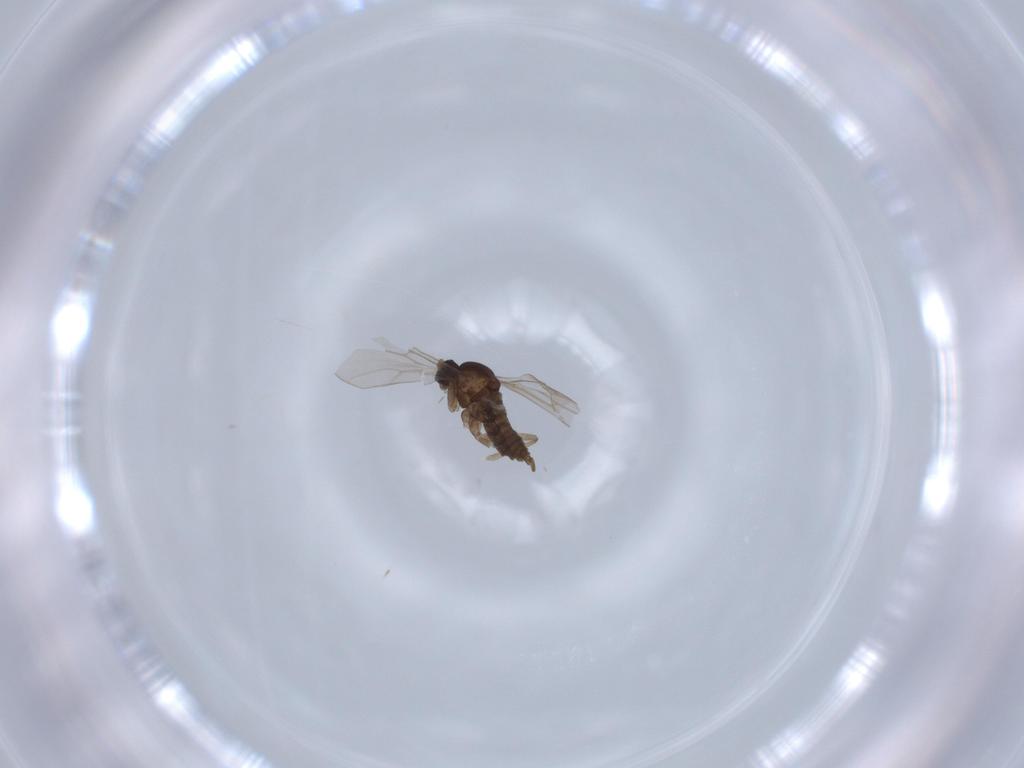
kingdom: Animalia
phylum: Arthropoda
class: Insecta
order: Diptera
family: Cecidomyiidae
